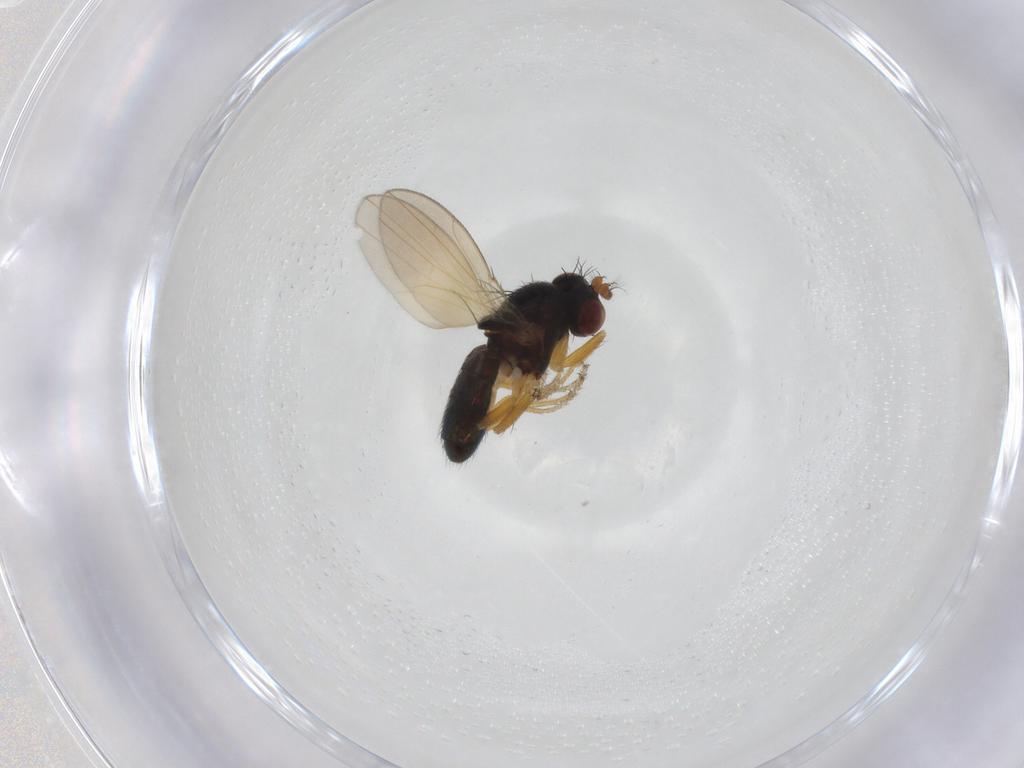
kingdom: Animalia
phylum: Arthropoda
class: Insecta
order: Diptera
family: Ephydridae
